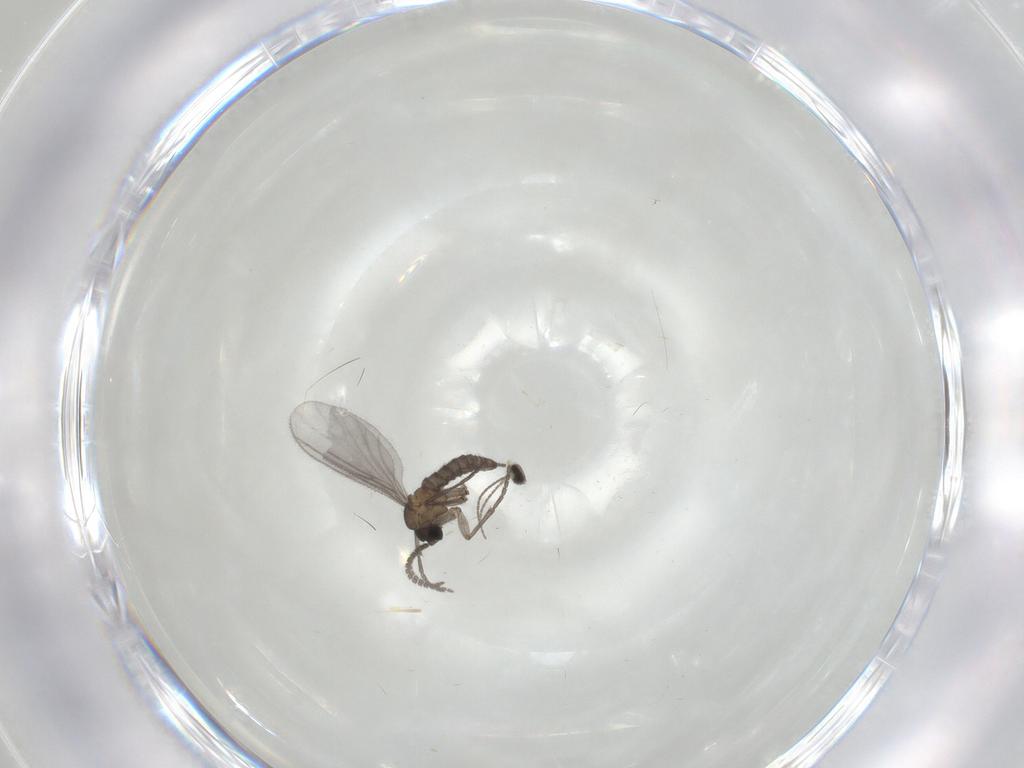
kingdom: Animalia
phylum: Arthropoda
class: Insecta
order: Diptera
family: Sciaridae
